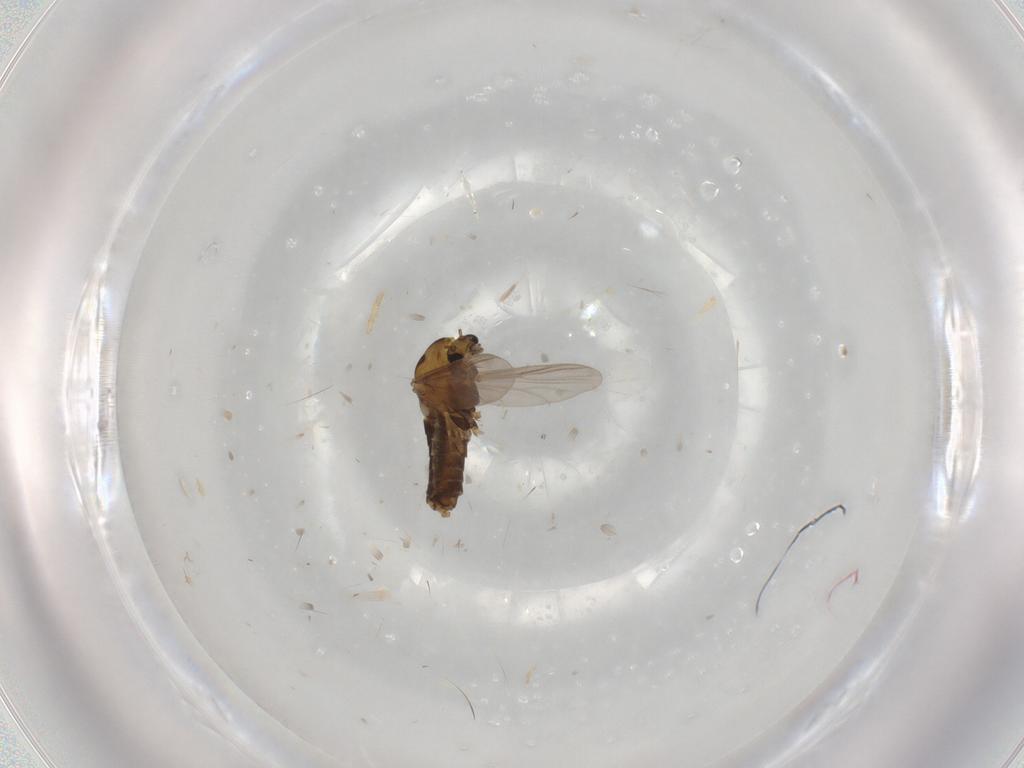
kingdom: Animalia
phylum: Arthropoda
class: Insecta
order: Diptera
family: Chironomidae
